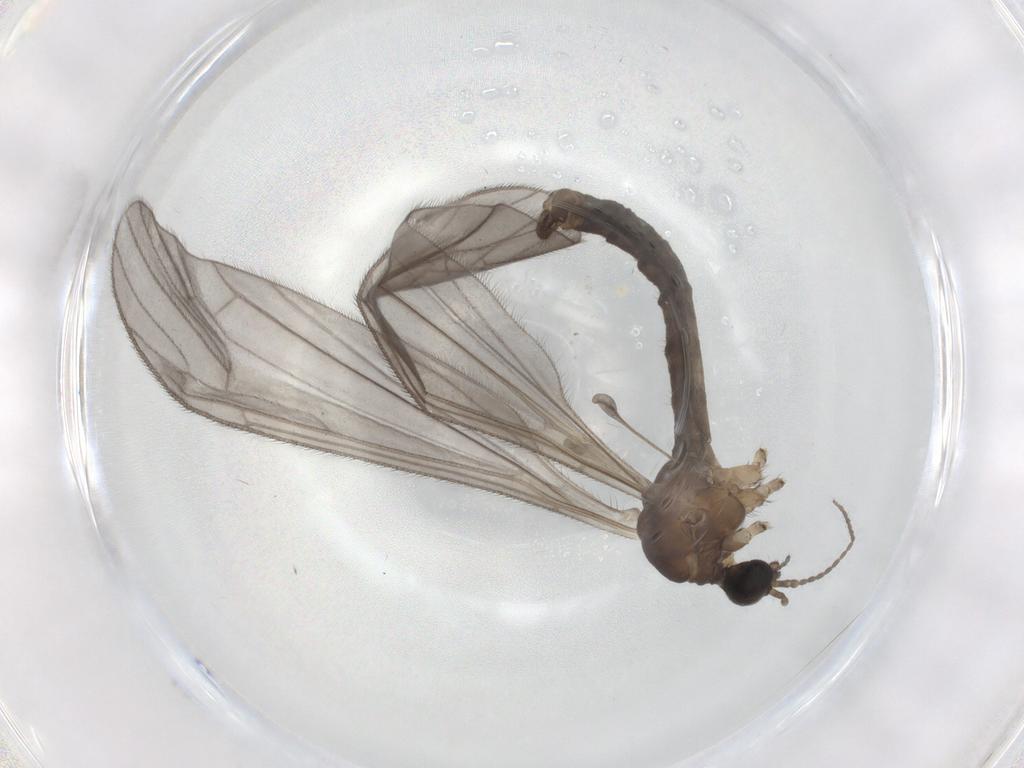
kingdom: Animalia
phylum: Arthropoda
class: Insecta
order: Diptera
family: Limoniidae
